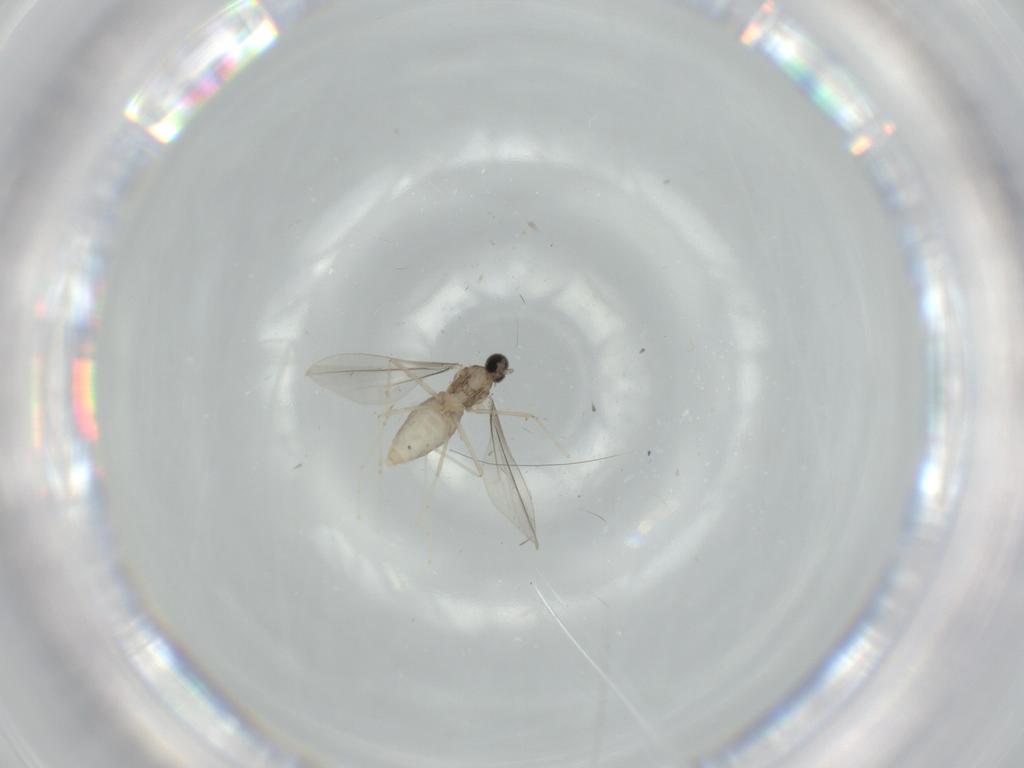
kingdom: Animalia
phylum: Arthropoda
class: Insecta
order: Diptera
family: Cecidomyiidae
